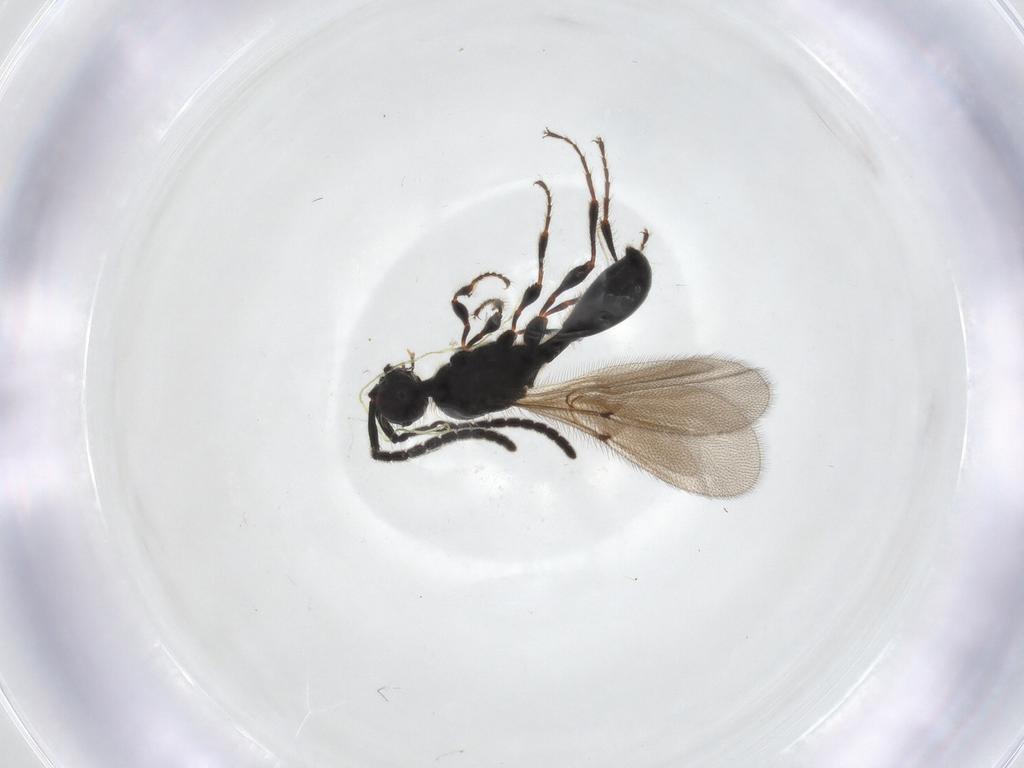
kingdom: Animalia
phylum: Arthropoda
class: Insecta
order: Hymenoptera
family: Diapriidae
